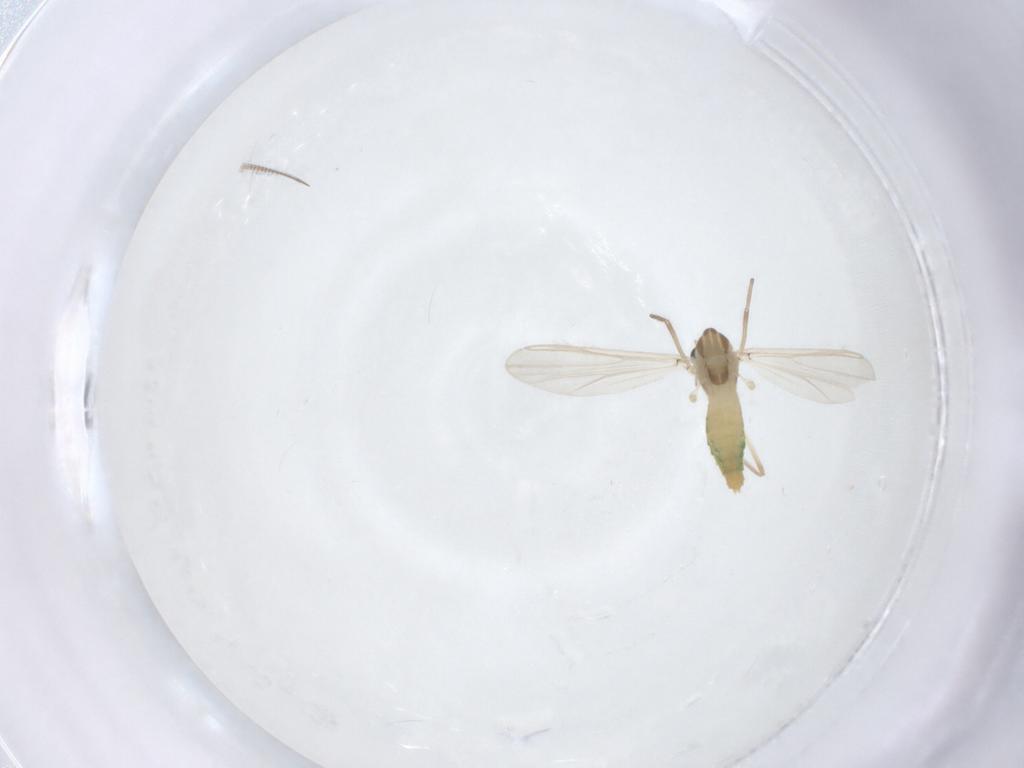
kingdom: Animalia
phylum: Arthropoda
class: Insecta
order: Diptera
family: Chironomidae
